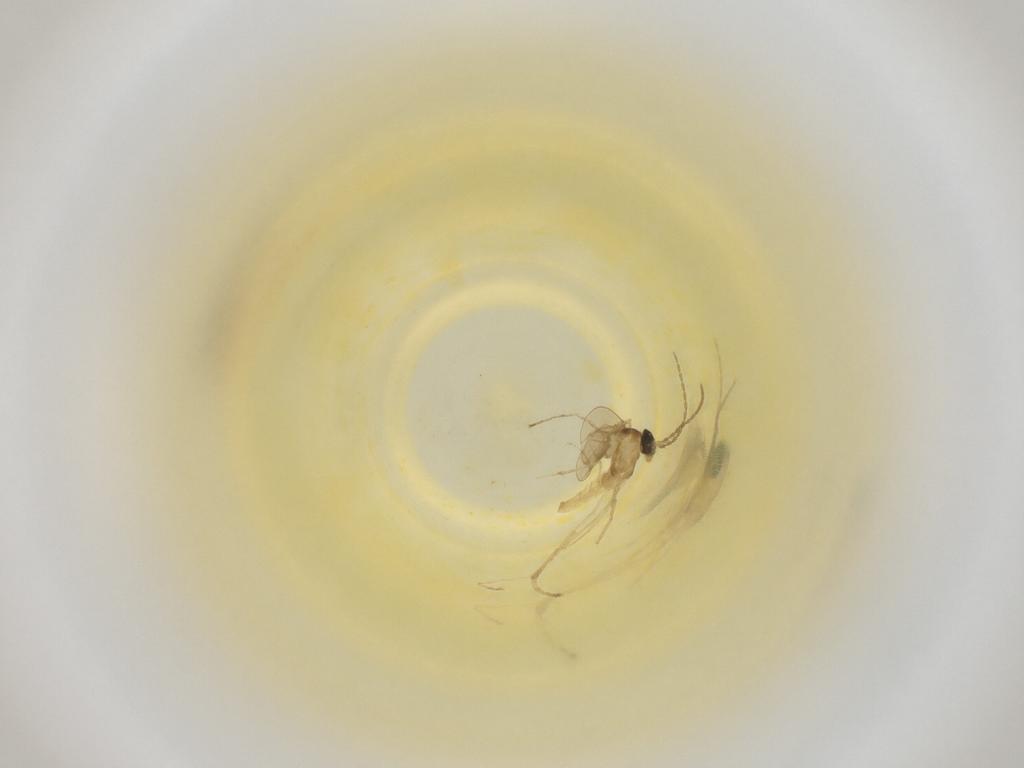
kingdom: Animalia
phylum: Arthropoda
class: Insecta
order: Diptera
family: Cecidomyiidae
